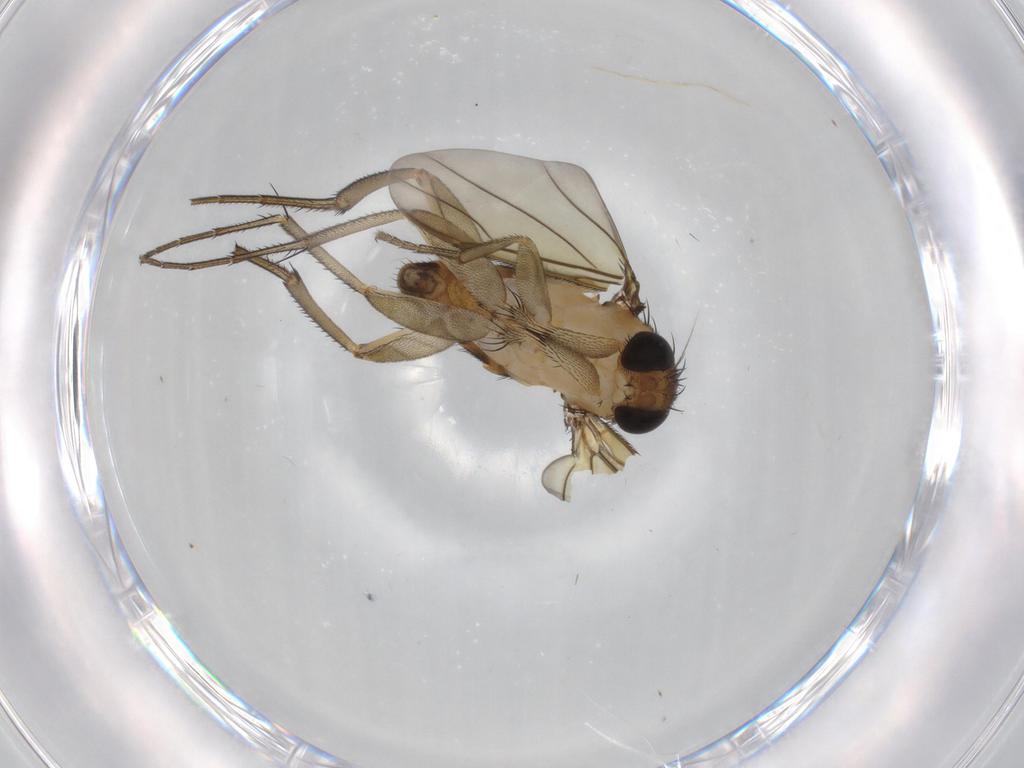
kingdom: Animalia
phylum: Arthropoda
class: Insecta
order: Diptera
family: Phoridae
